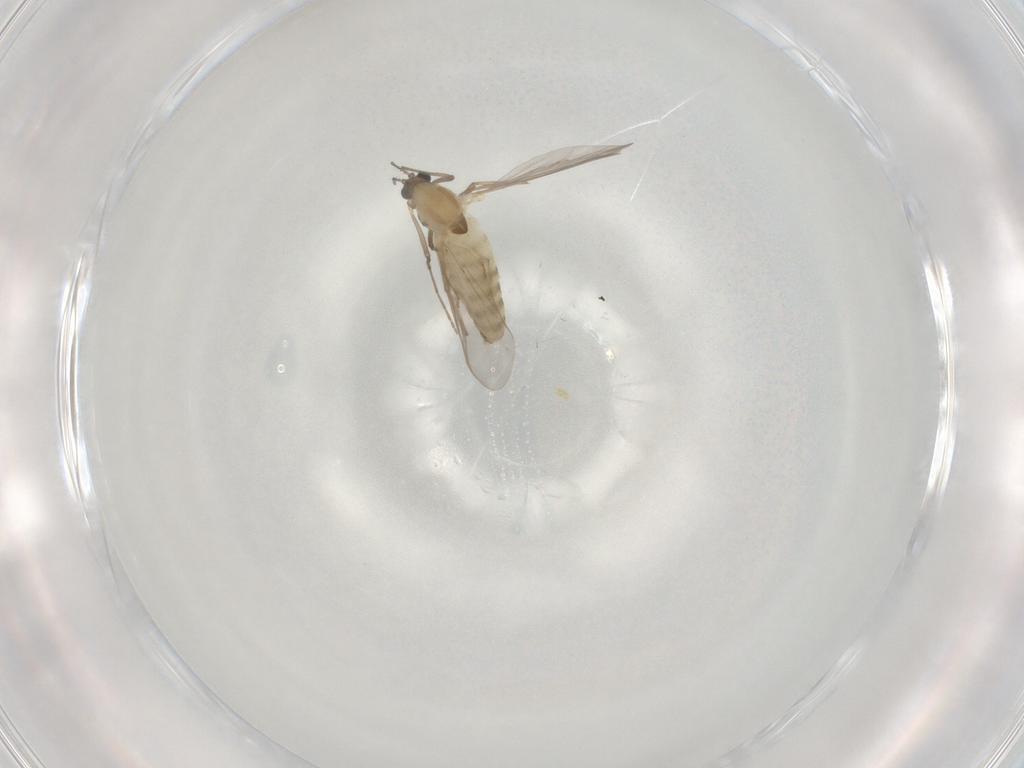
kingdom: Animalia
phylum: Arthropoda
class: Insecta
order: Diptera
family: Chironomidae
